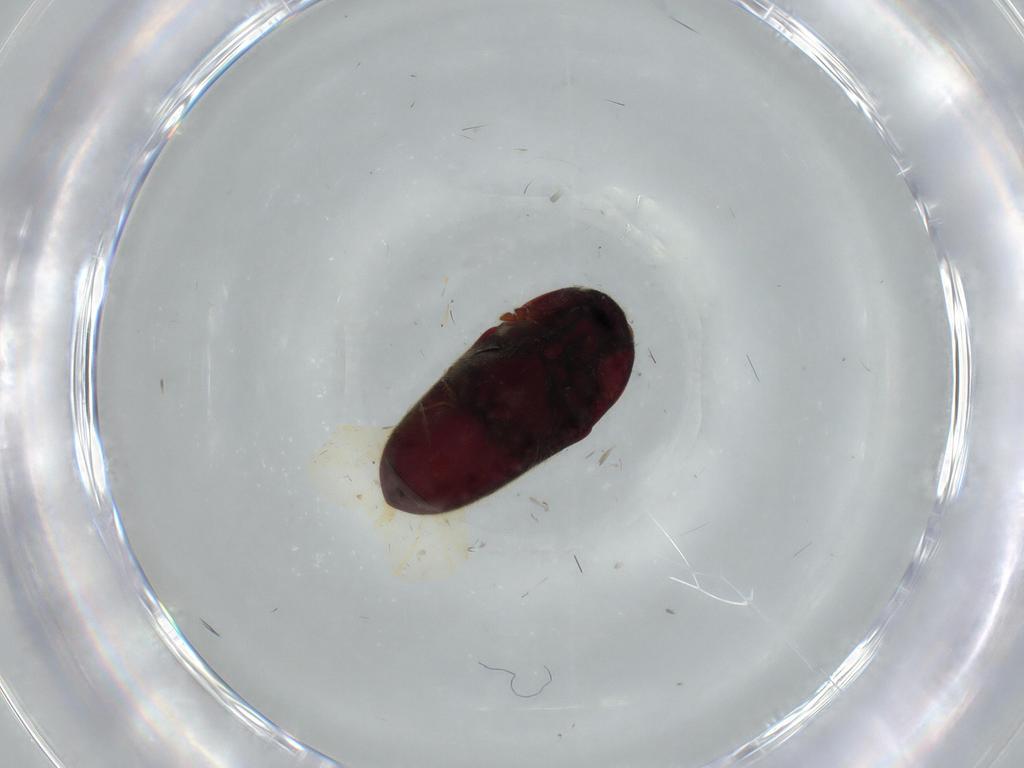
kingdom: Animalia
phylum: Arthropoda
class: Insecta
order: Coleoptera
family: Throscidae
